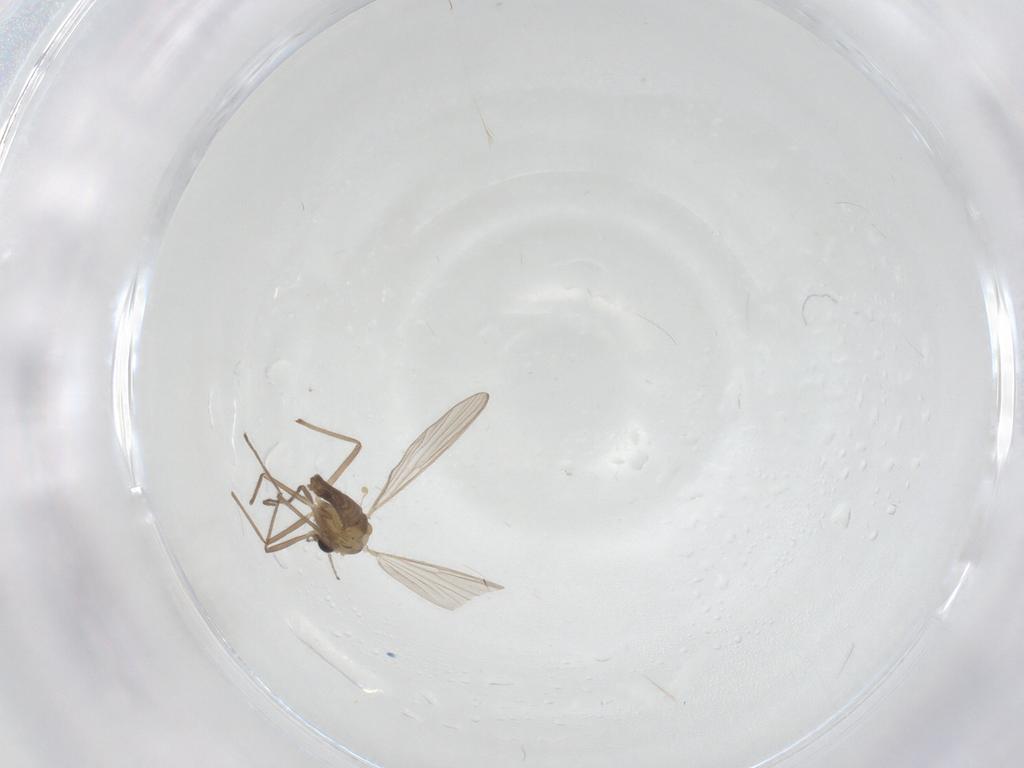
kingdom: Animalia
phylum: Arthropoda
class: Insecta
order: Diptera
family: Chironomidae
